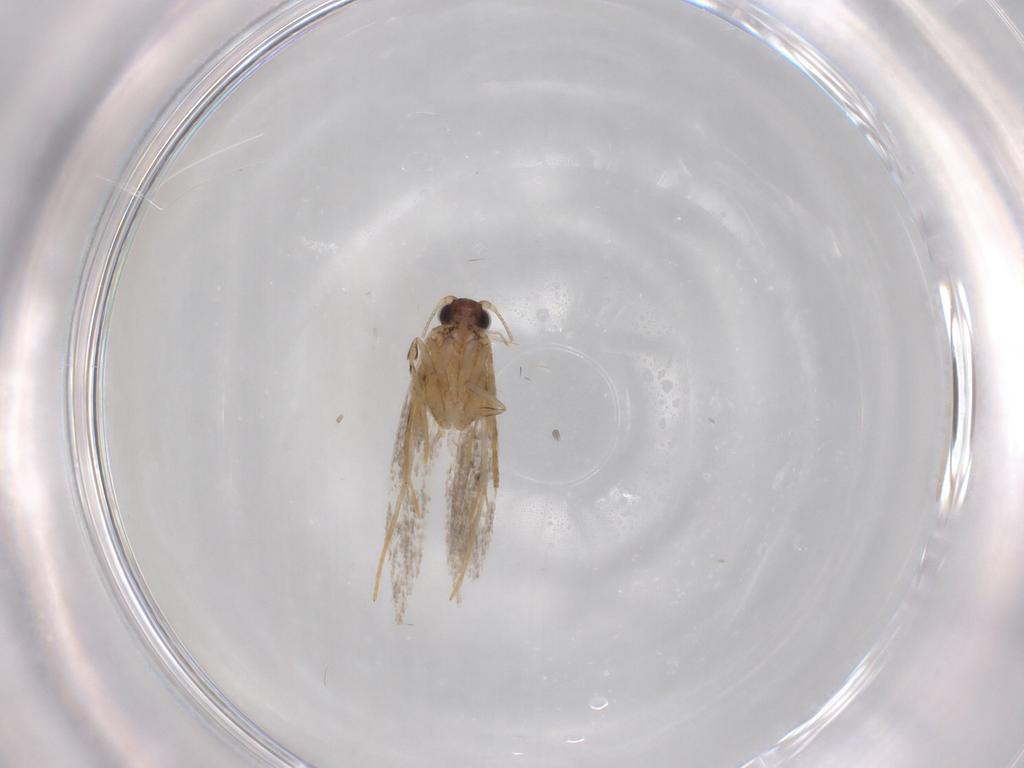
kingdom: Animalia
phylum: Arthropoda
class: Insecta
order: Lepidoptera
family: Tineidae
